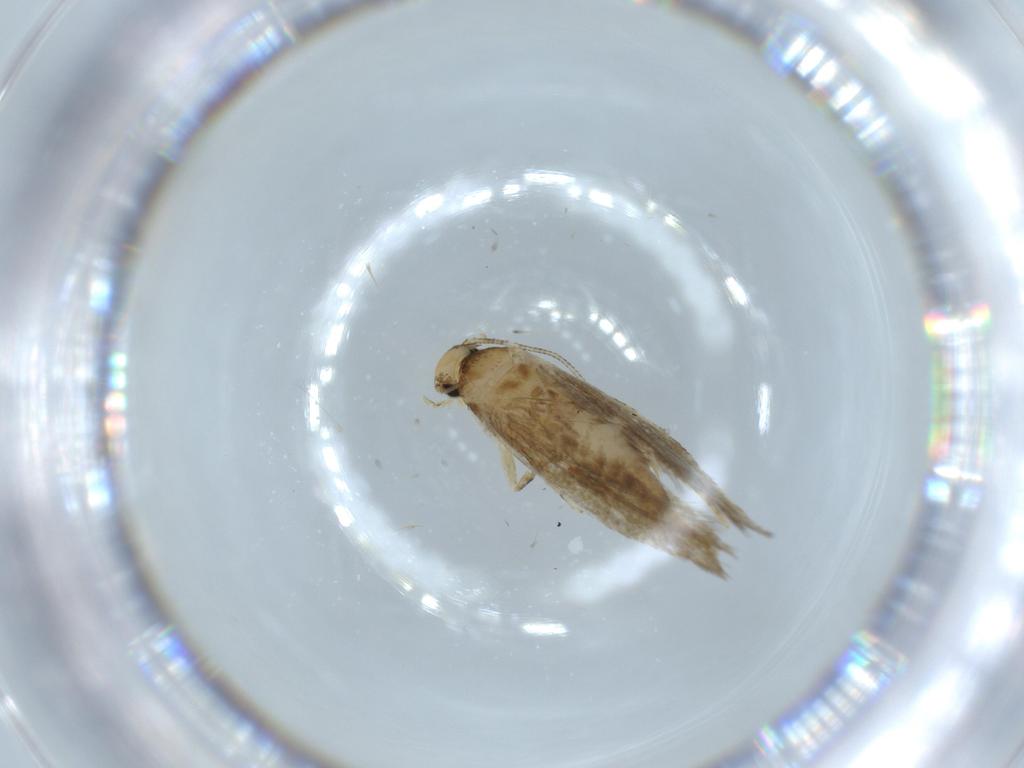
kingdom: Animalia
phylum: Arthropoda
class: Insecta
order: Lepidoptera
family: Tineidae
